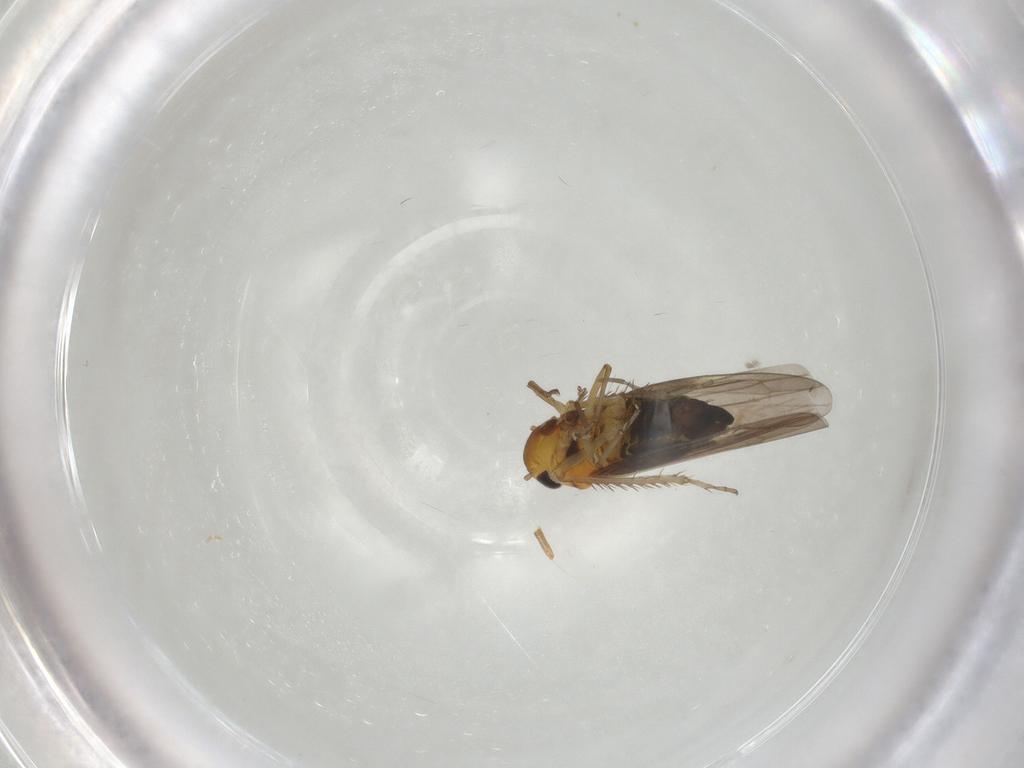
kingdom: Animalia
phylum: Arthropoda
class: Insecta
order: Hemiptera
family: Cicadellidae
